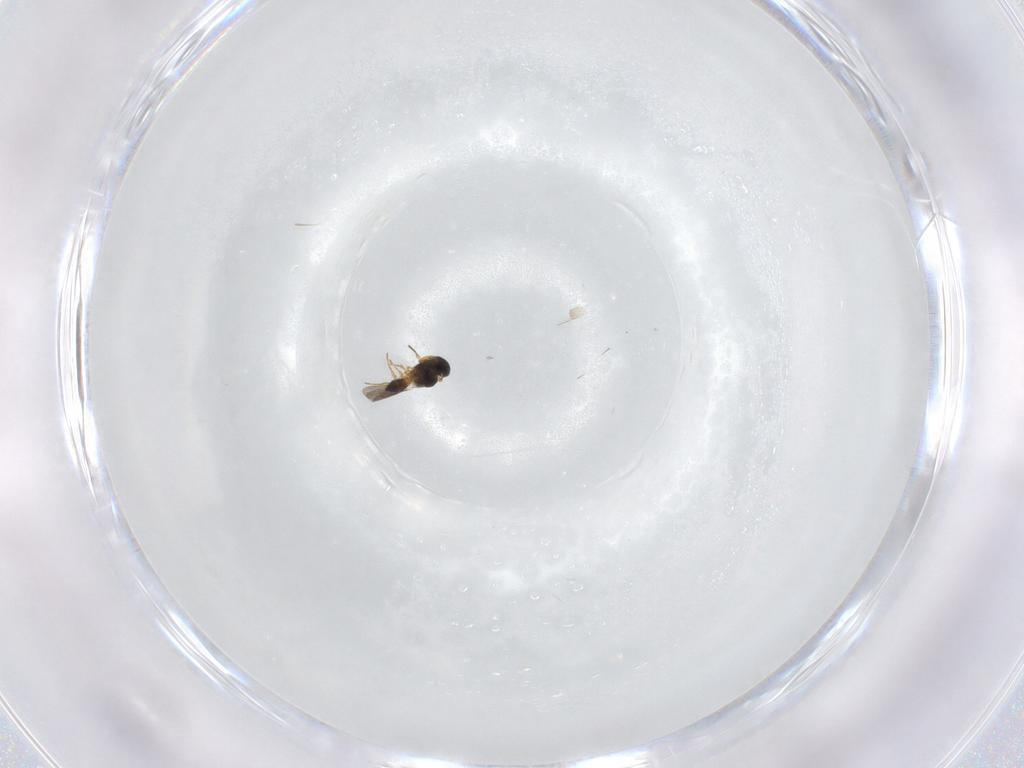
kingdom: Animalia
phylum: Arthropoda
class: Insecta
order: Hymenoptera
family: Platygastridae
